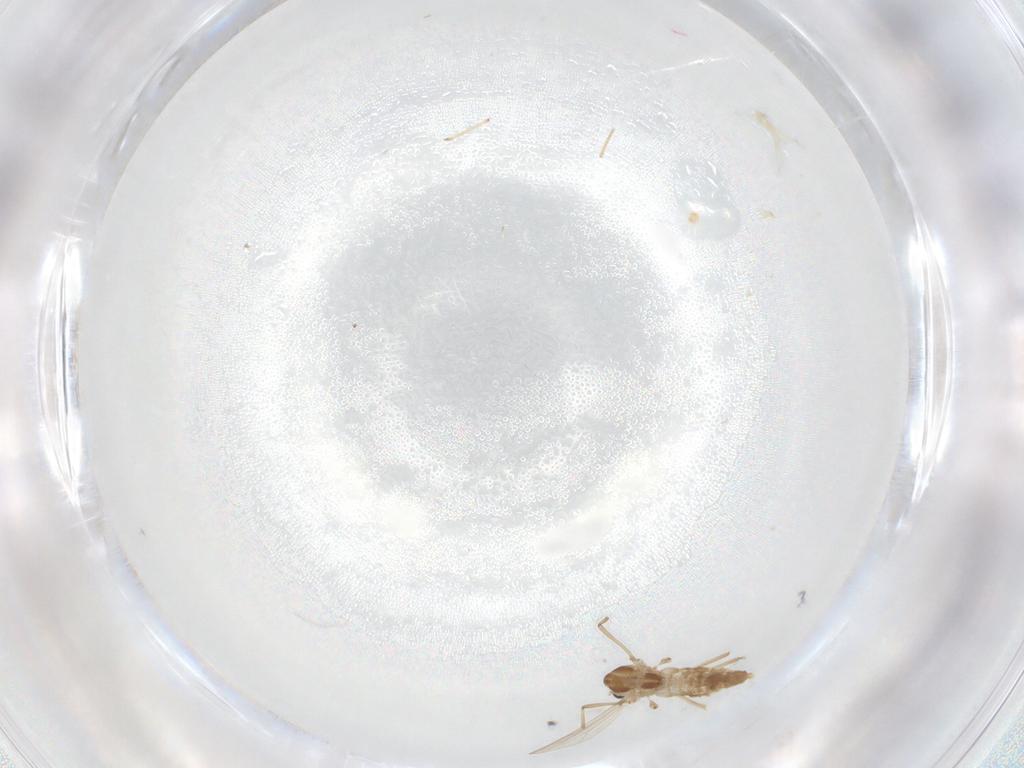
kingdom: Animalia
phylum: Arthropoda
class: Insecta
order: Diptera
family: Chironomidae
